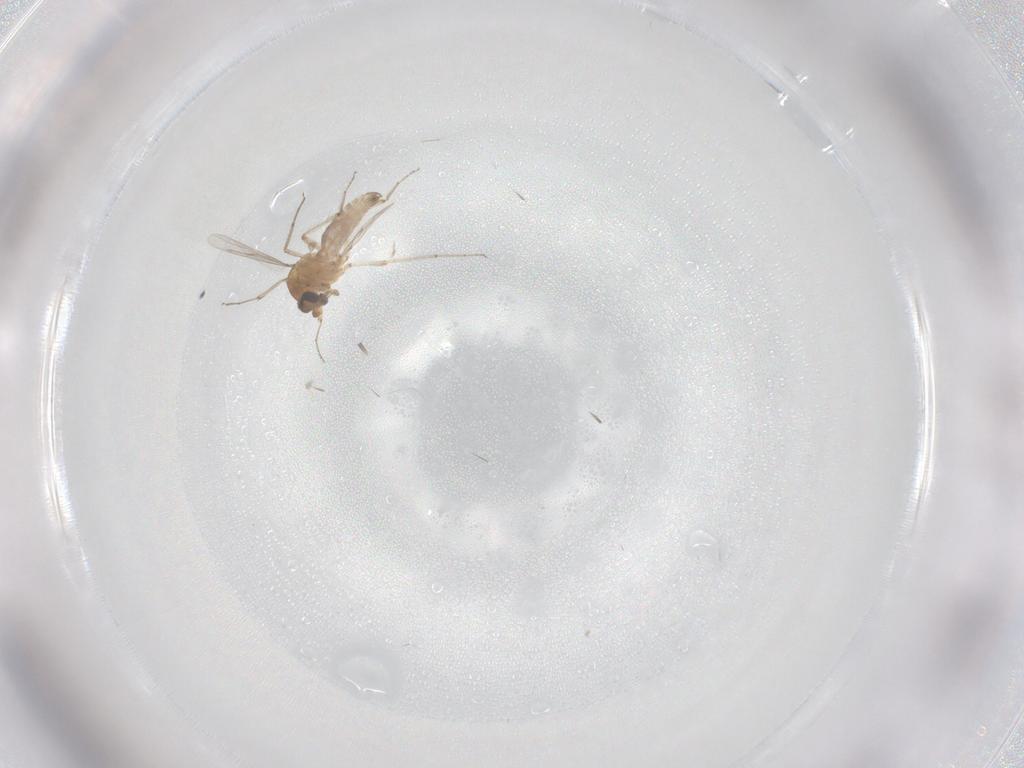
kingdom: Animalia
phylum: Arthropoda
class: Insecta
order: Diptera
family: Ceratopogonidae
